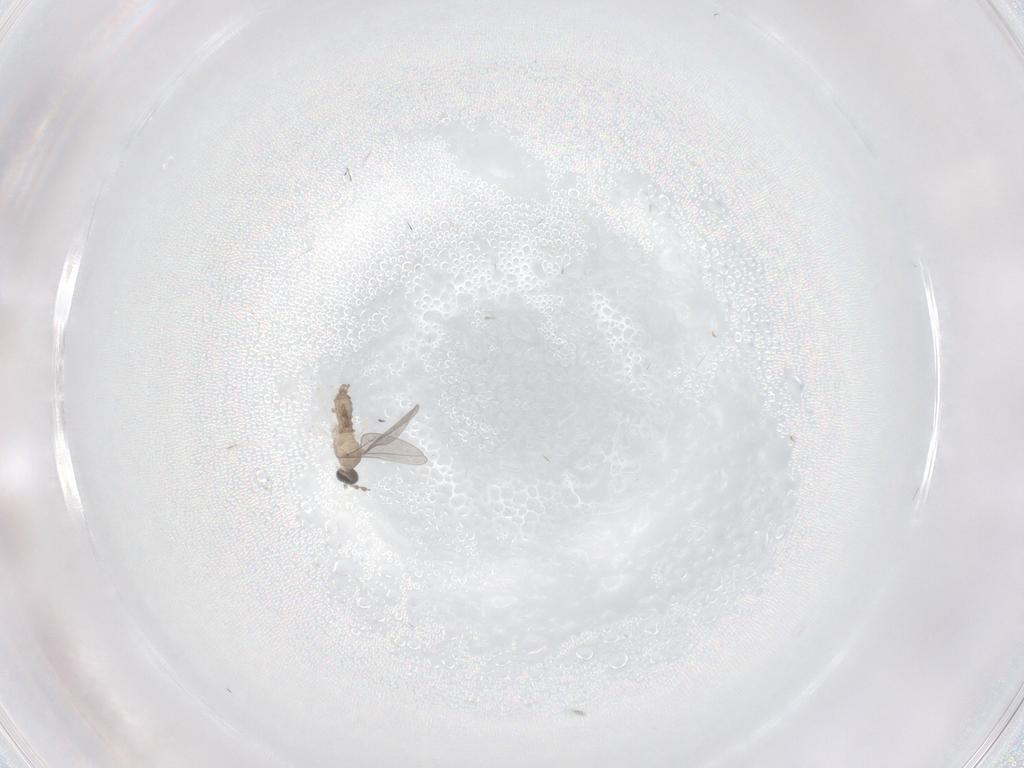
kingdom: Animalia
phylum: Arthropoda
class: Insecta
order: Diptera
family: Cecidomyiidae
